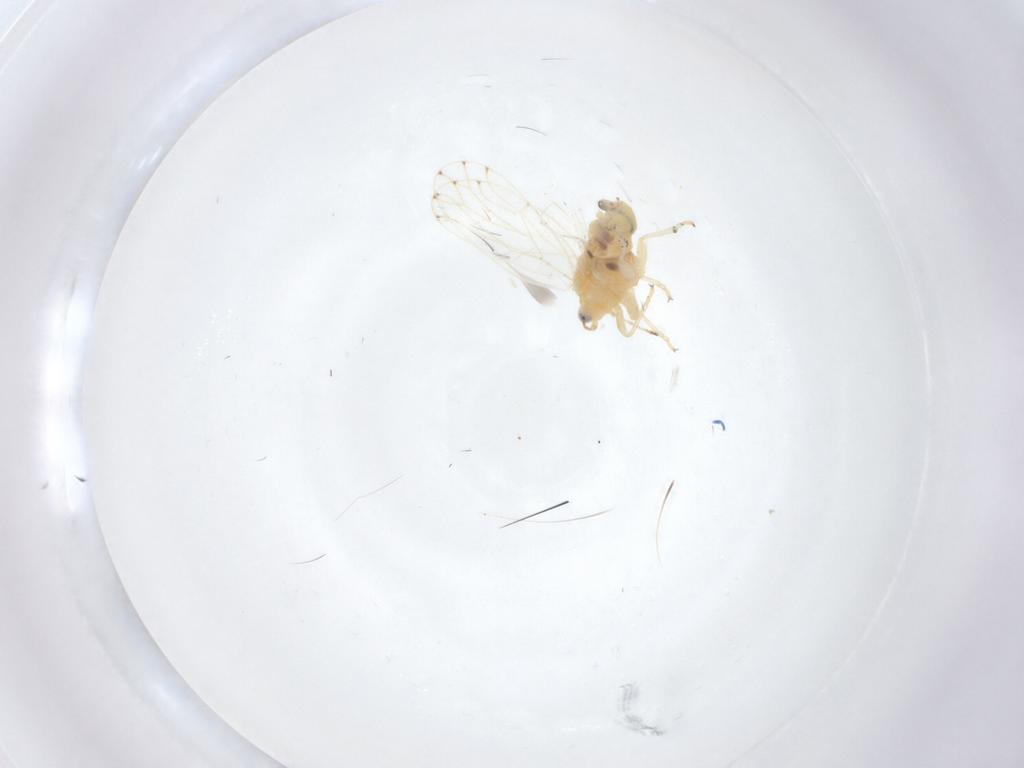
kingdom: Animalia
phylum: Arthropoda
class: Insecta
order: Hemiptera
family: Aphalaridae
